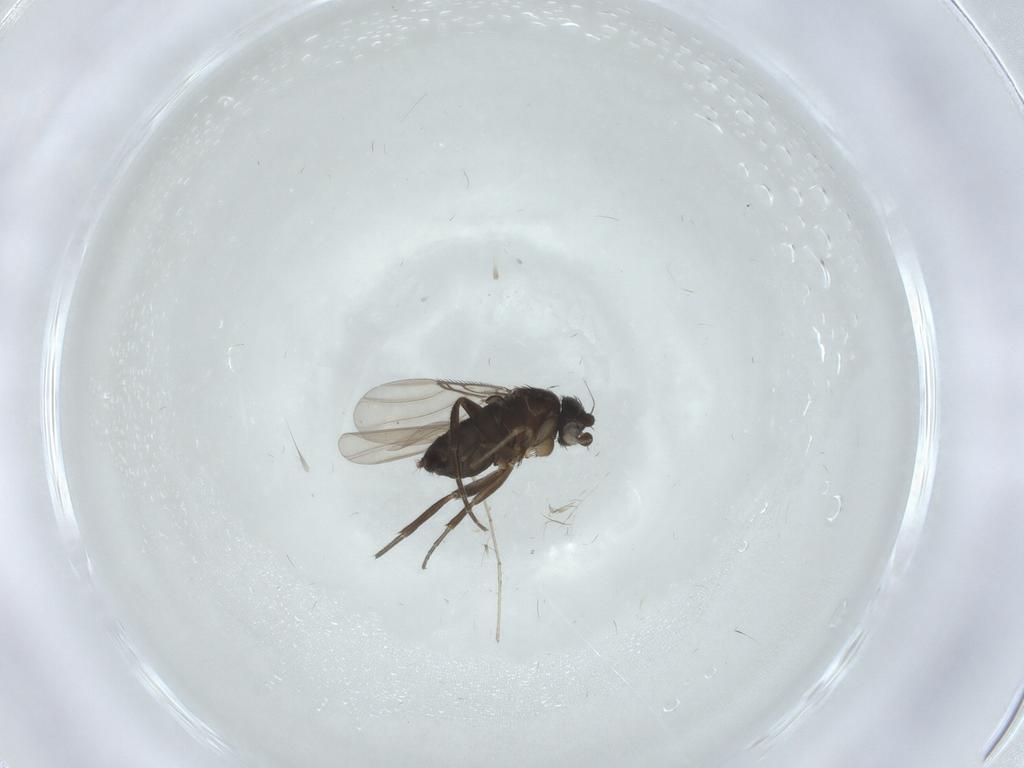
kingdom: Animalia
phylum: Arthropoda
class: Insecta
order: Diptera
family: Phoridae
